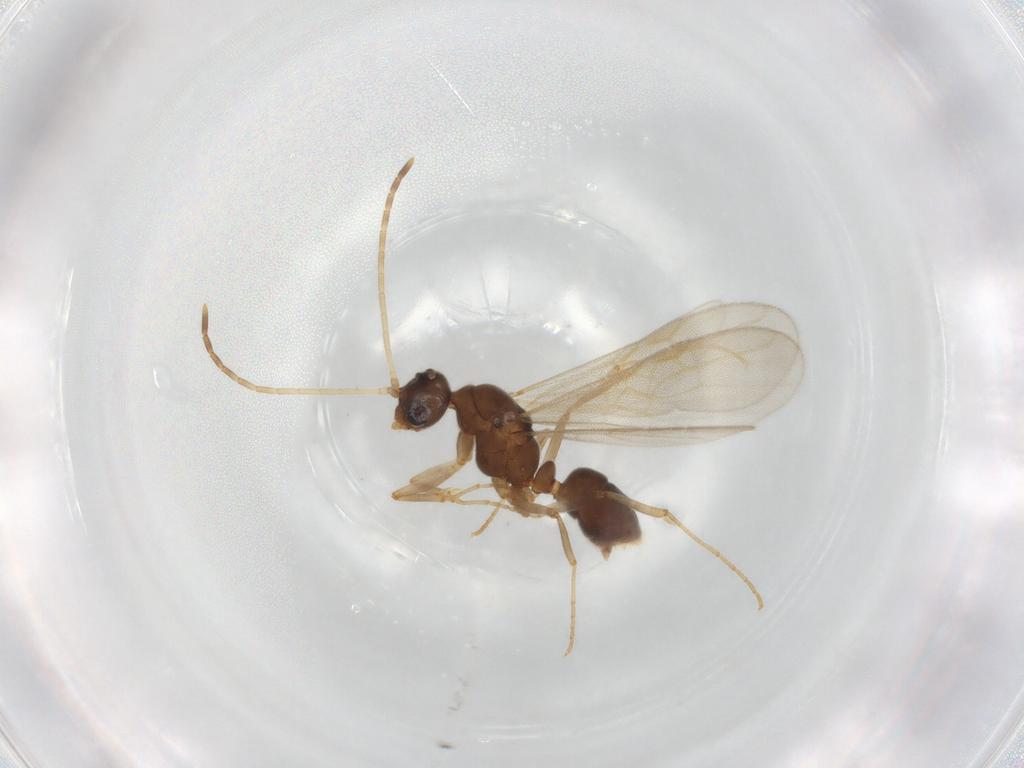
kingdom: Animalia
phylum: Arthropoda
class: Insecta
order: Hymenoptera
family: Formicidae
